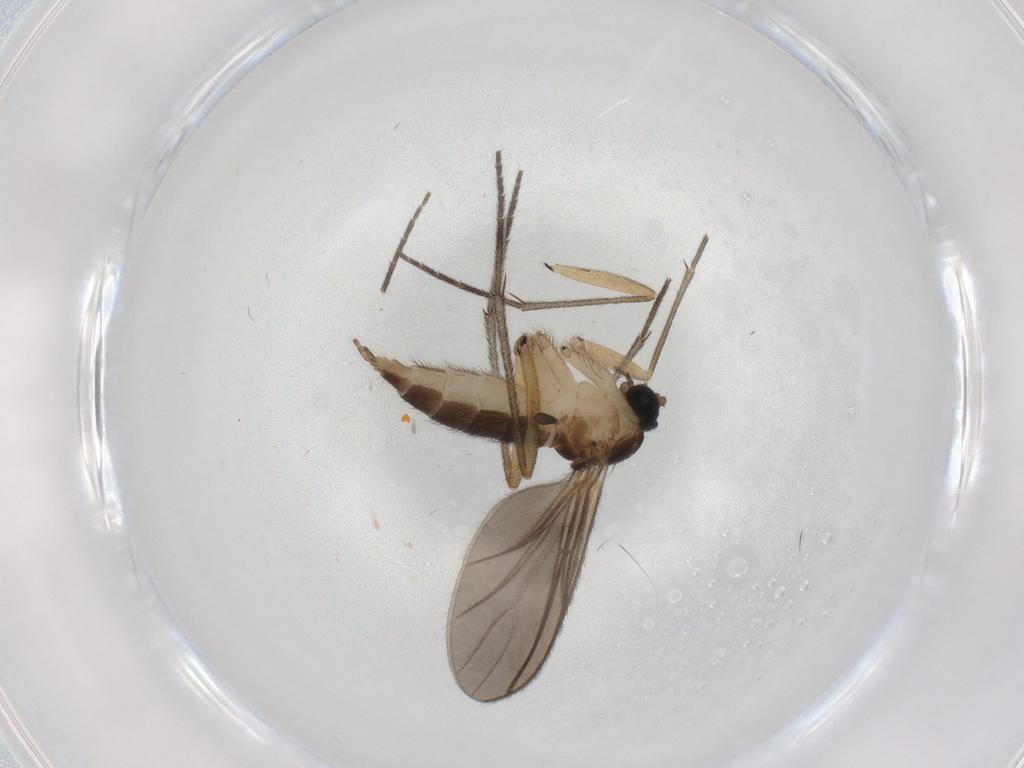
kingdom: Animalia
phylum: Arthropoda
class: Insecta
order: Diptera
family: Sciaridae
